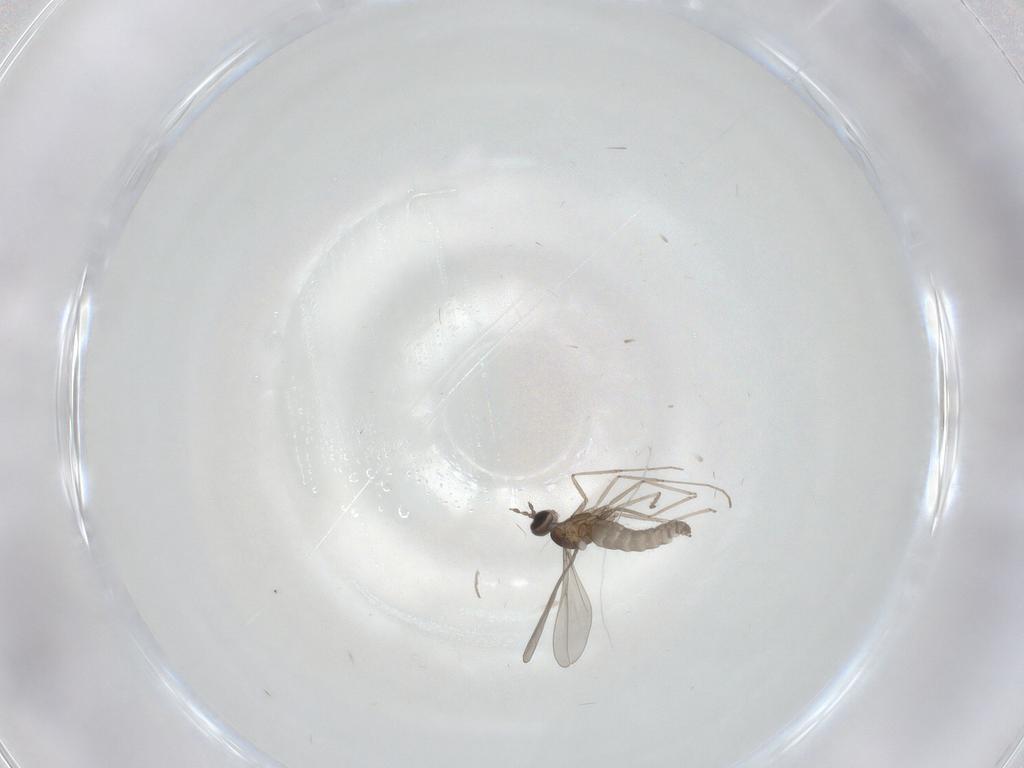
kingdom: Animalia
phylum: Arthropoda
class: Insecta
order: Diptera
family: Cecidomyiidae
